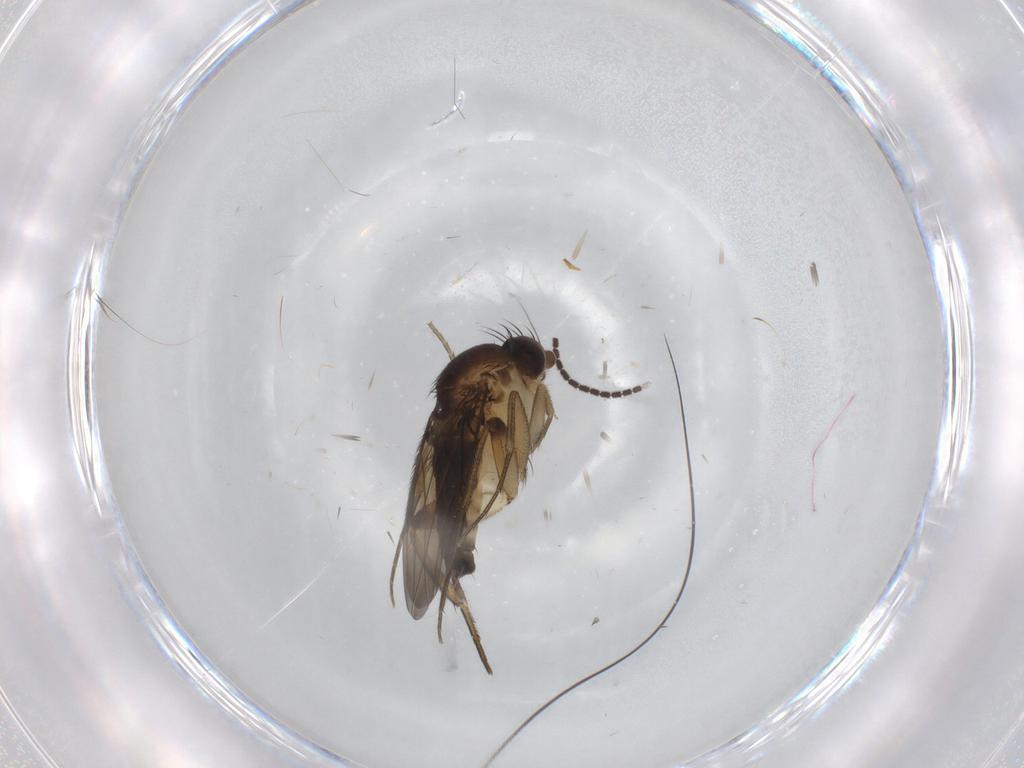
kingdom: Animalia
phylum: Arthropoda
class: Insecta
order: Diptera
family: Sciaridae
